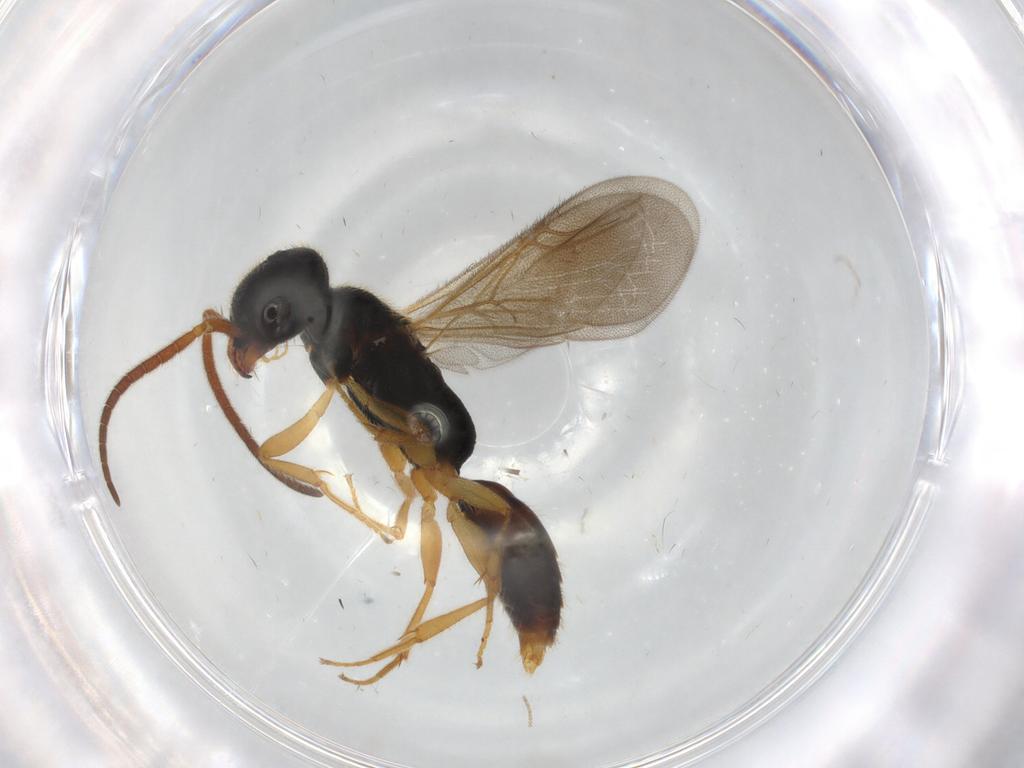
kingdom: Animalia
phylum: Arthropoda
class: Insecta
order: Hymenoptera
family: Bethylidae
